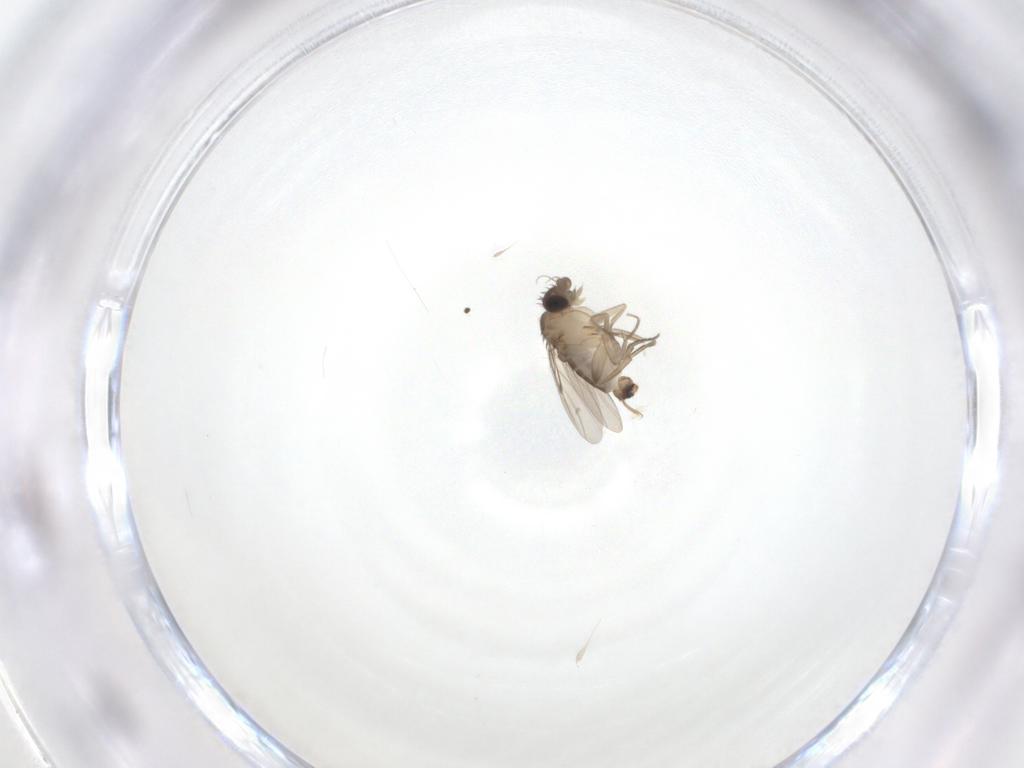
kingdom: Animalia
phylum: Arthropoda
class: Insecta
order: Diptera
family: Phoridae
